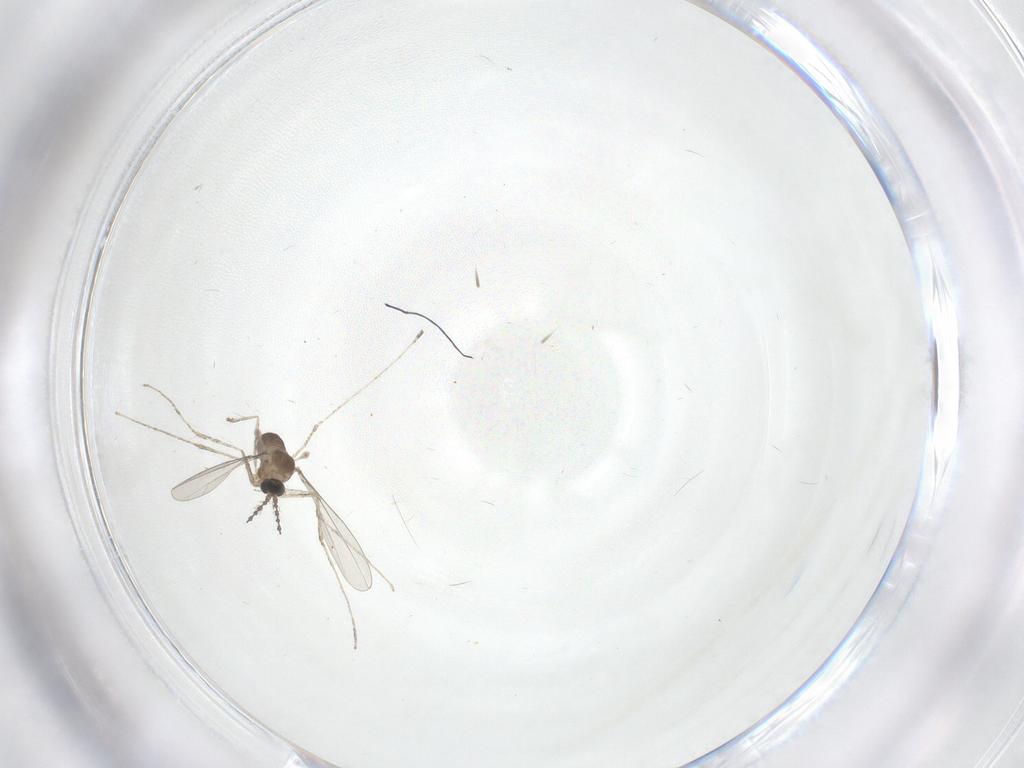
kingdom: Animalia
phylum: Arthropoda
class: Insecta
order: Diptera
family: Cecidomyiidae
